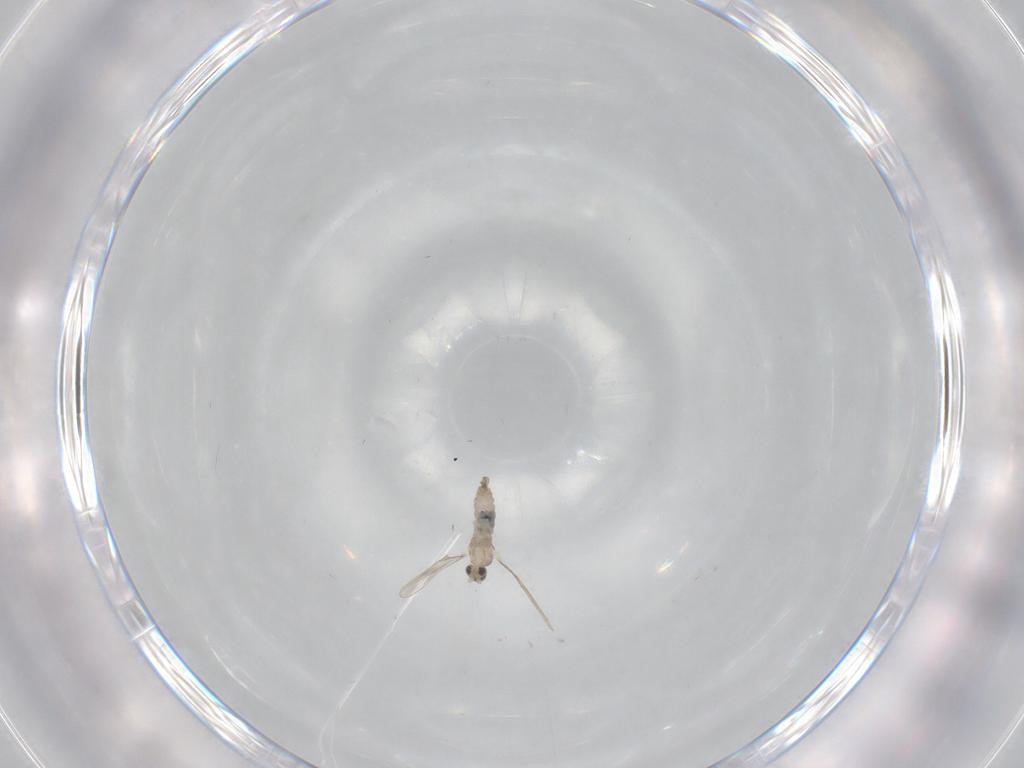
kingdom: Animalia
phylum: Arthropoda
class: Insecta
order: Diptera
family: Cecidomyiidae
